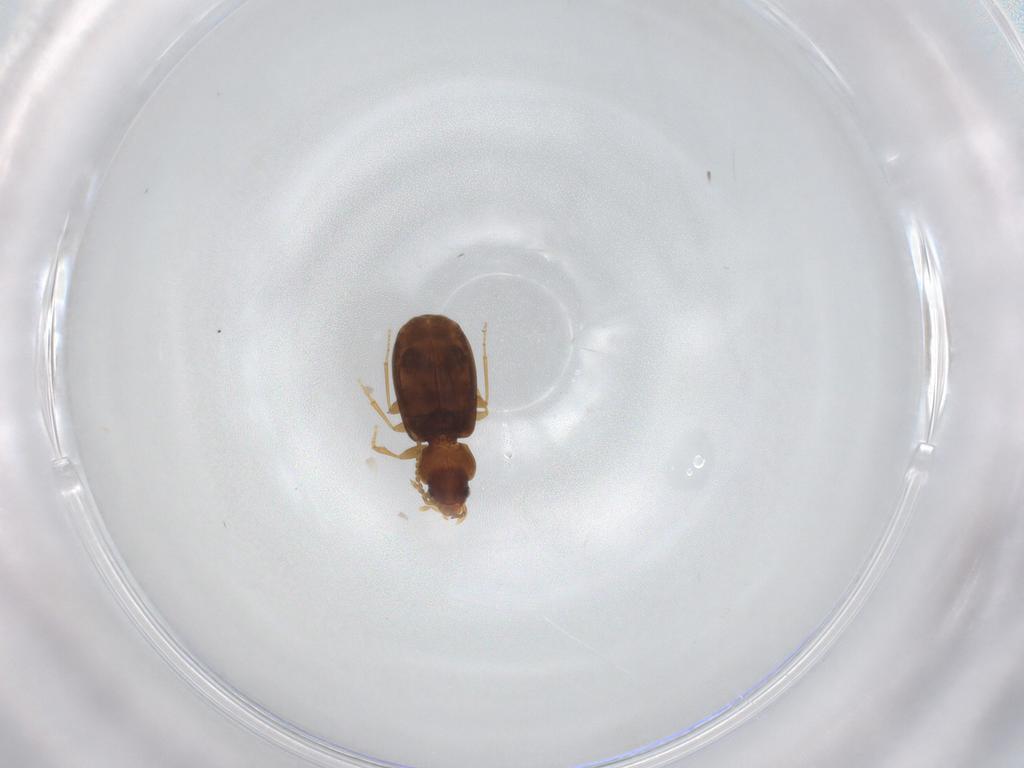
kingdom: Animalia
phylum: Arthropoda
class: Insecta
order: Coleoptera
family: Carabidae
